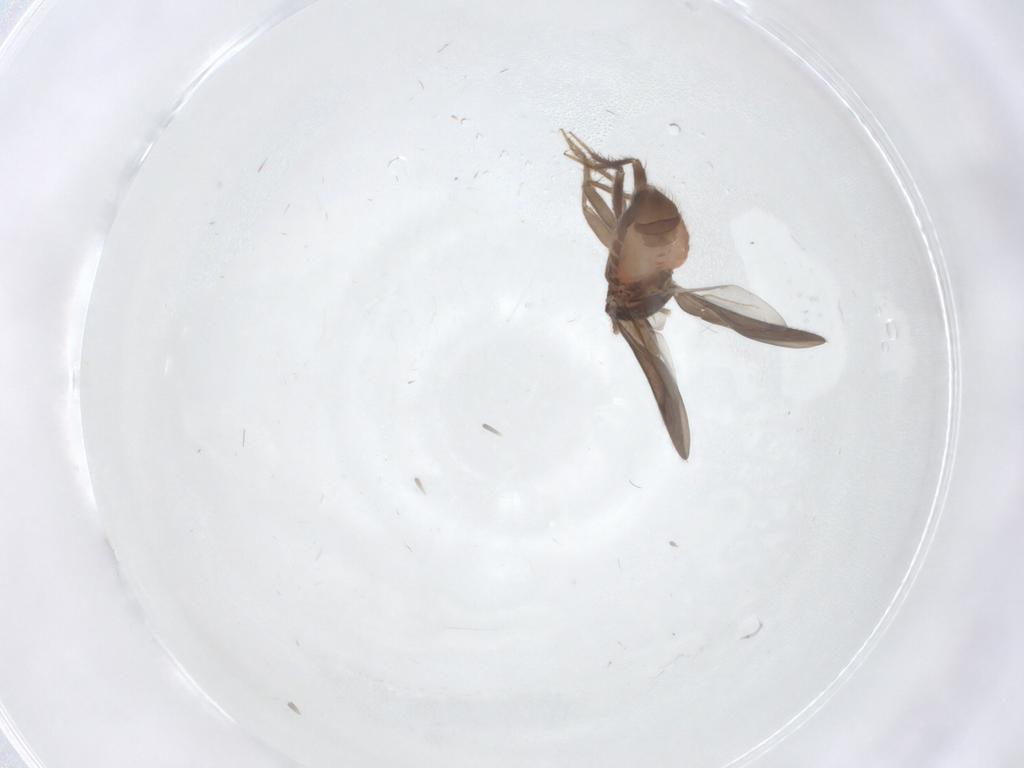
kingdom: Animalia
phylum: Arthropoda
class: Insecta
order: Hemiptera
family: Ceratocombidae
